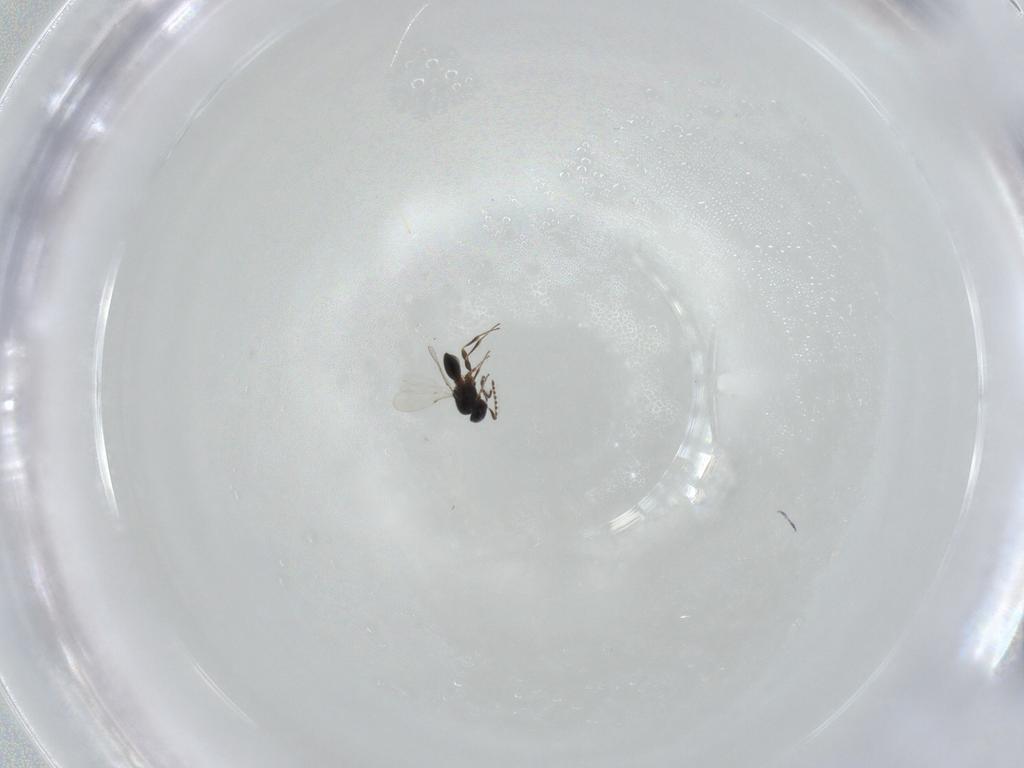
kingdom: Animalia
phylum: Arthropoda
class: Insecta
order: Hymenoptera
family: Platygastridae
